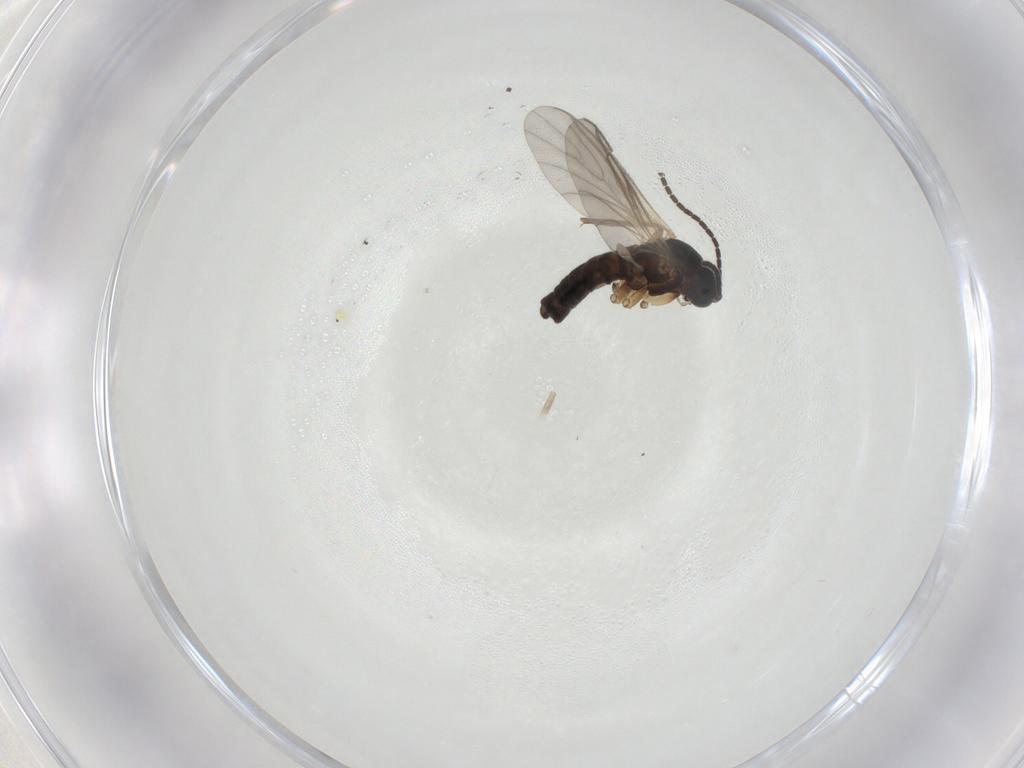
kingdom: Animalia
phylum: Arthropoda
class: Insecta
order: Diptera
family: Sciaridae
